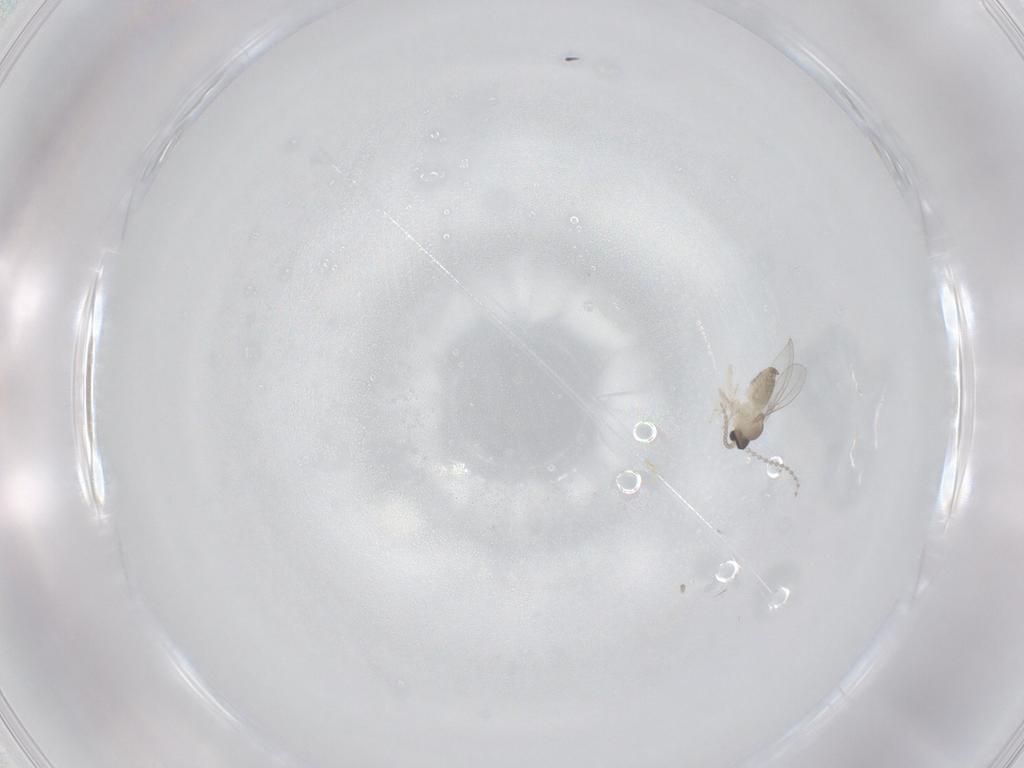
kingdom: Animalia
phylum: Arthropoda
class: Insecta
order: Diptera
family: Cecidomyiidae
